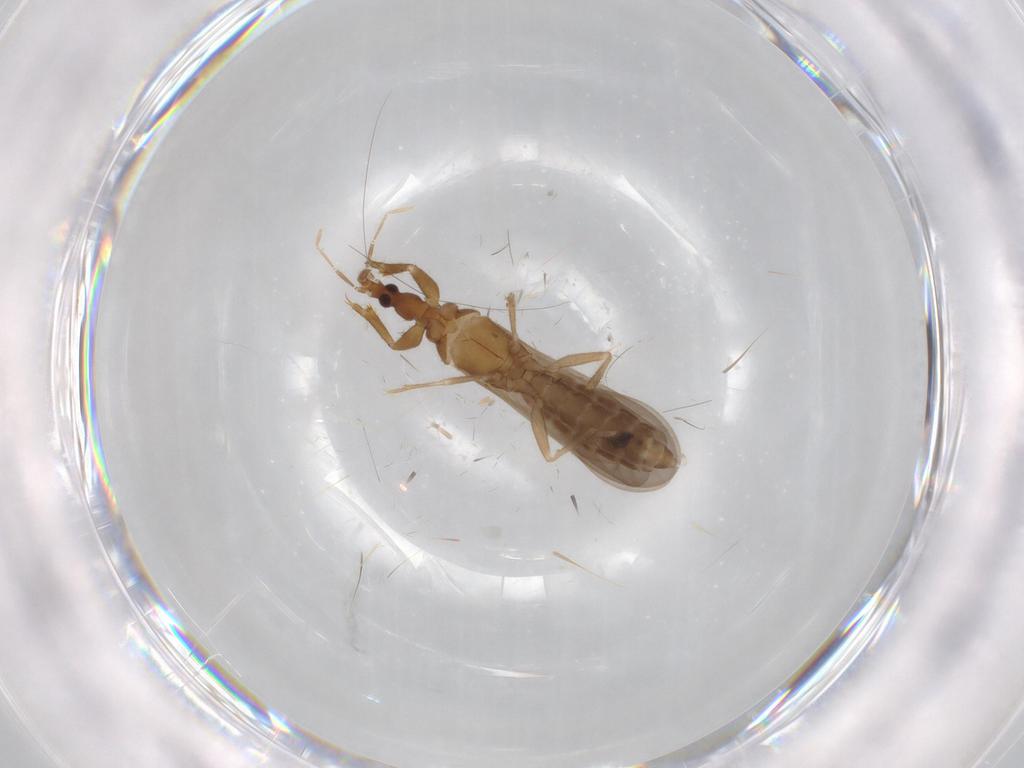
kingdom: Animalia
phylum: Arthropoda
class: Insecta
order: Hemiptera
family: Enicocephalidae
